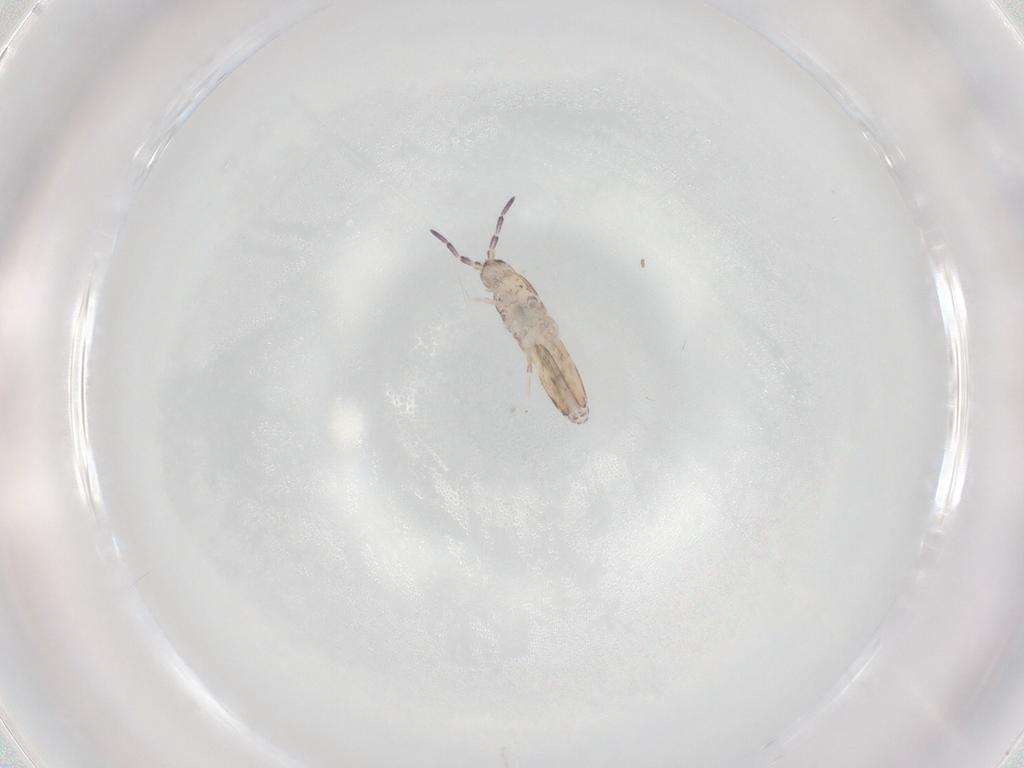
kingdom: Animalia
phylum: Arthropoda
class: Collembola
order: Entomobryomorpha
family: Entomobryidae
